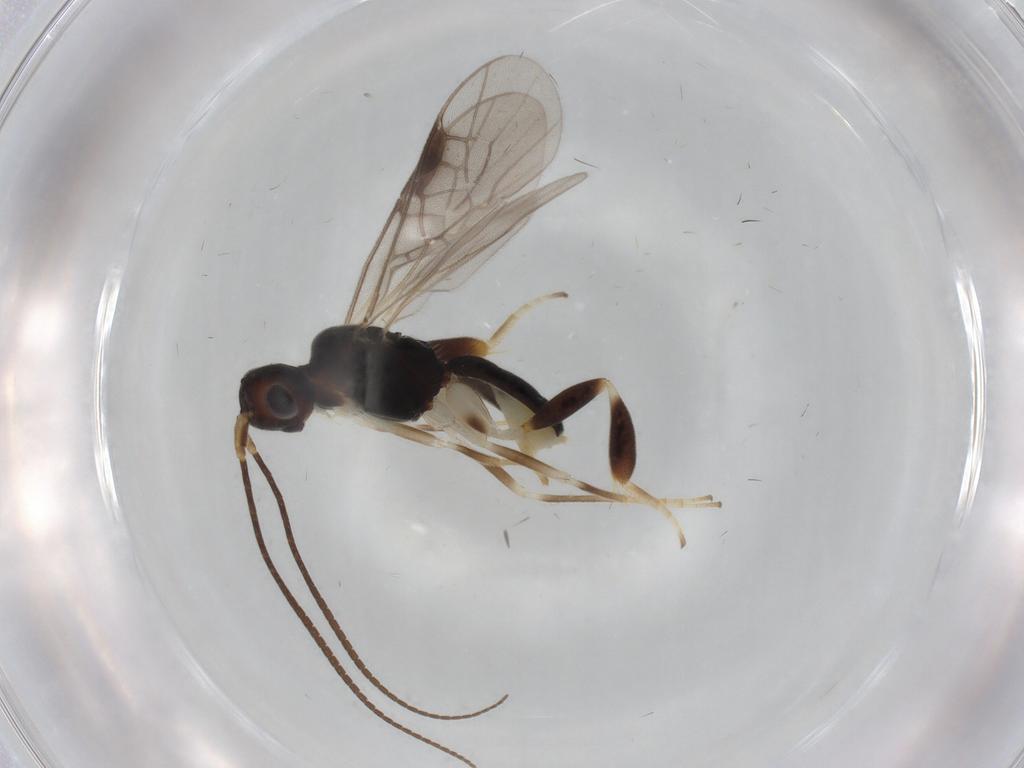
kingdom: Animalia
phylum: Arthropoda
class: Insecta
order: Hymenoptera
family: Braconidae
